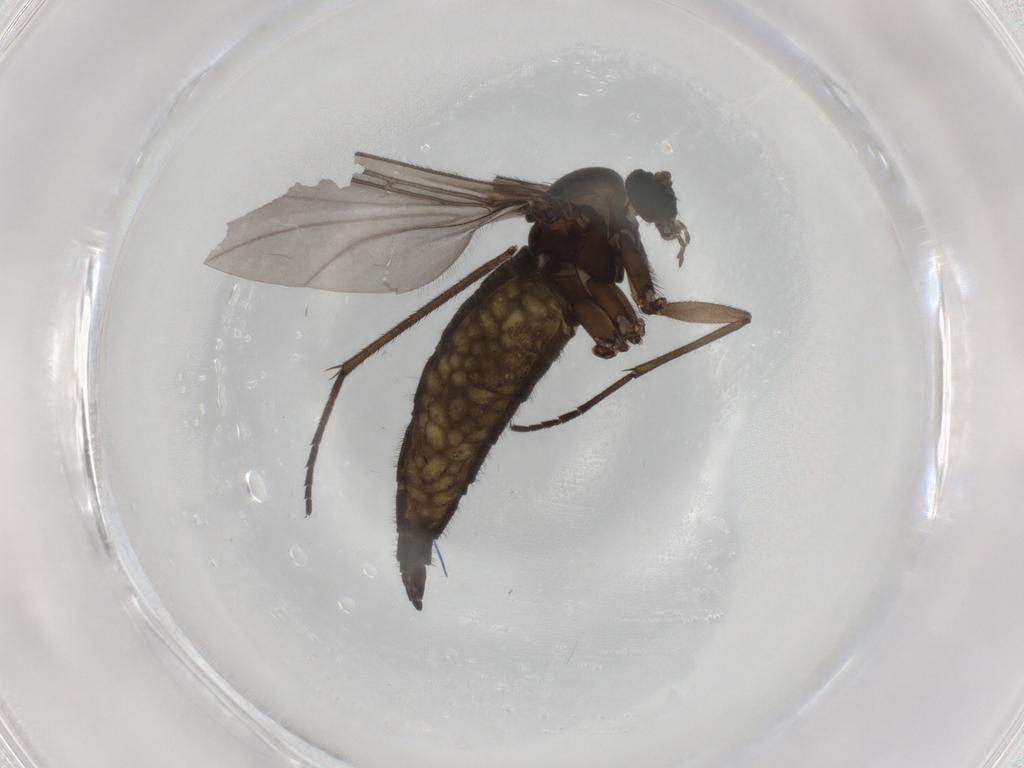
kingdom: Animalia
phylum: Arthropoda
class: Insecta
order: Diptera
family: Sciaridae
